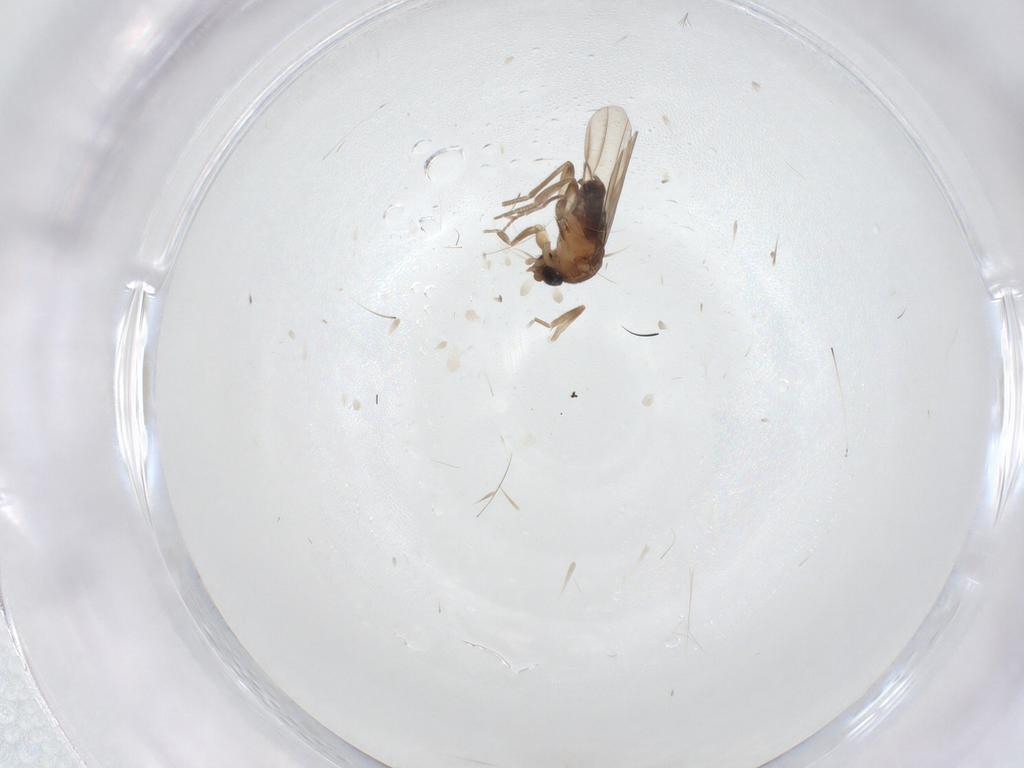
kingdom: Animalia
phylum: Arthropoda
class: Insecta
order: Diptera
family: Phoridae
